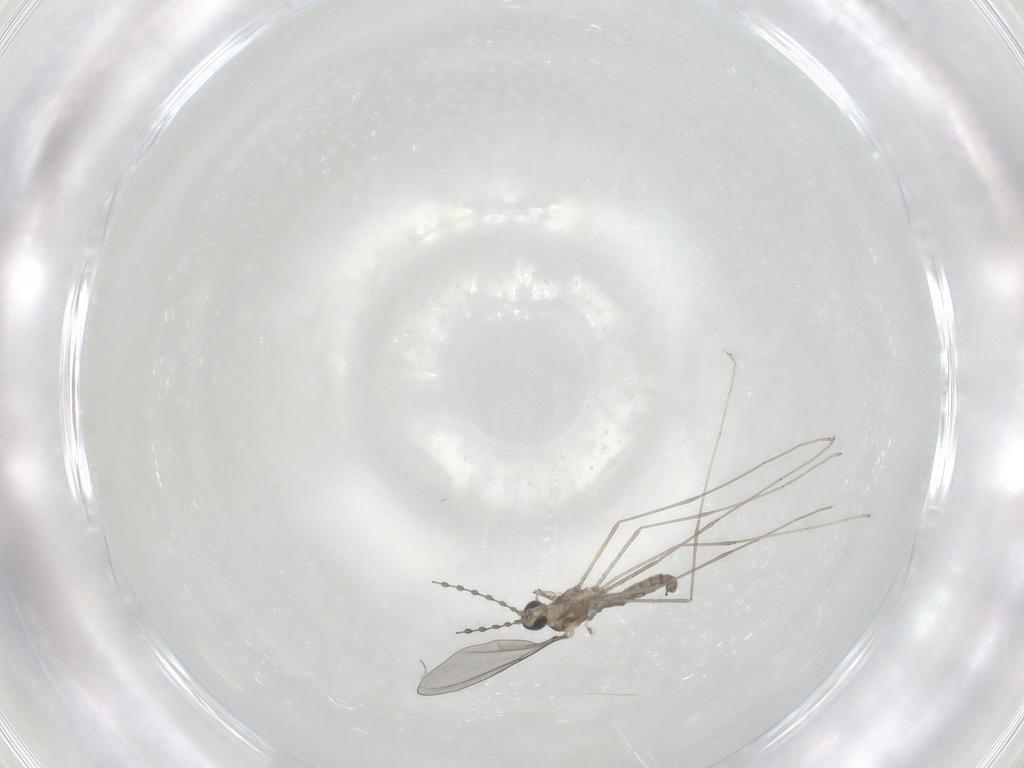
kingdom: Animalia
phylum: Arthropoda
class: Insecta
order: Diptera
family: Cecidomyiidae
